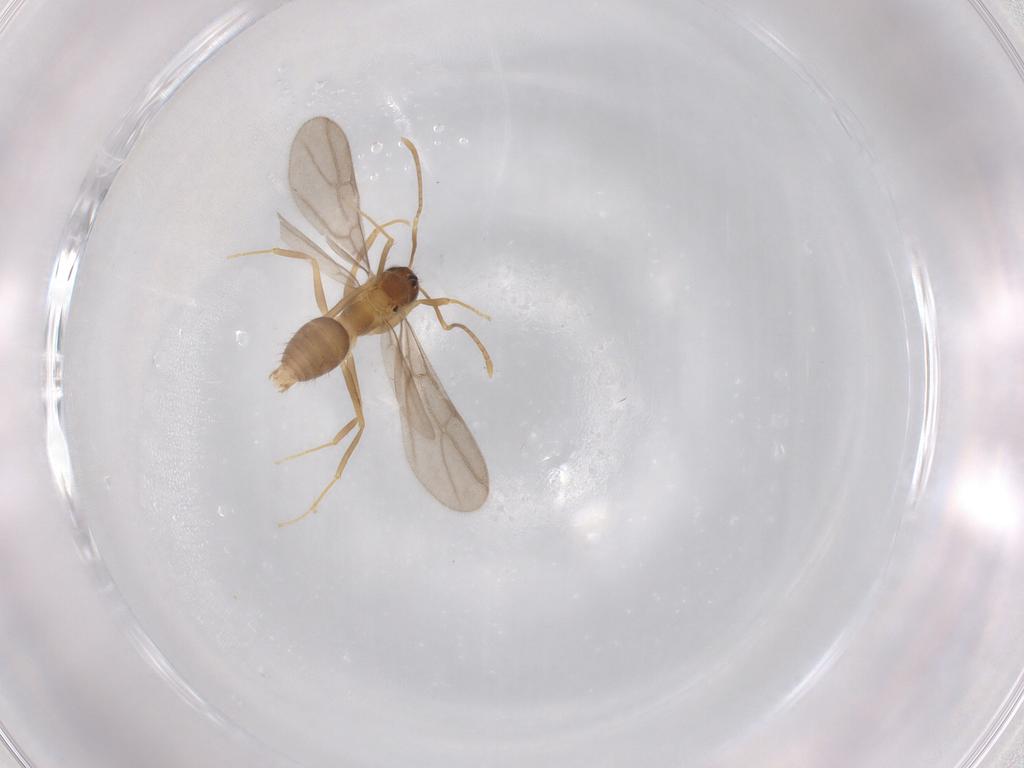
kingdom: Animalia
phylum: Arthropoda
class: Insecta
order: Hymenoptera
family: Formicidae
